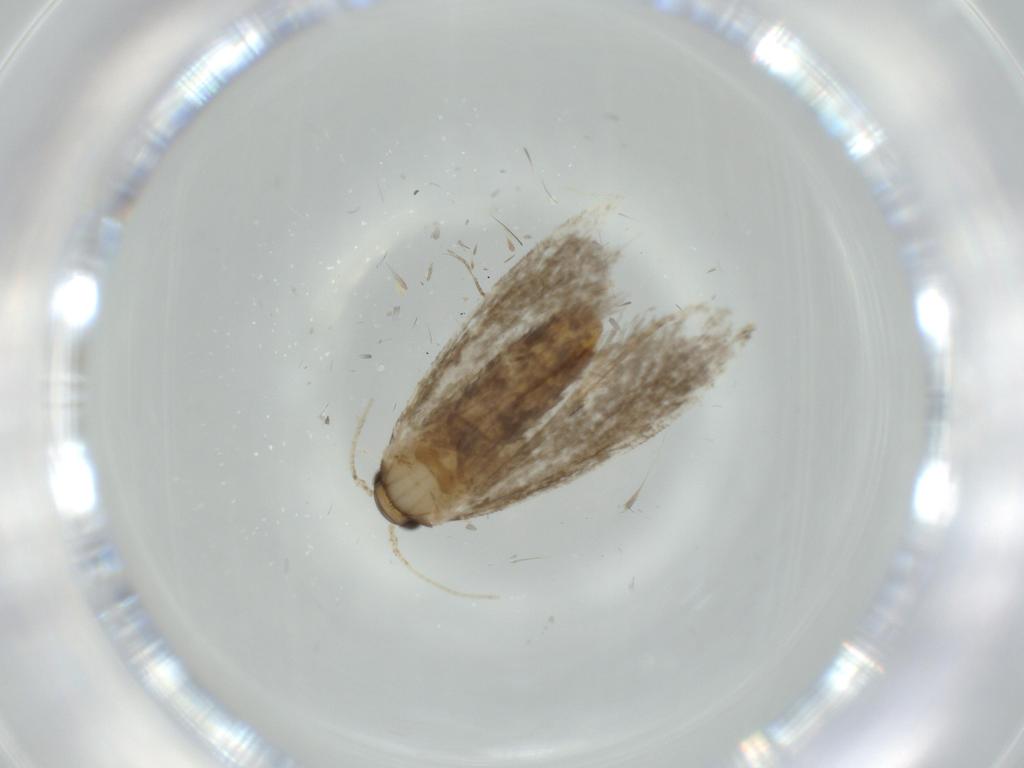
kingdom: Animalia
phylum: Arthropoda
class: Insecta
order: Lepidoptera
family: Tineidae
